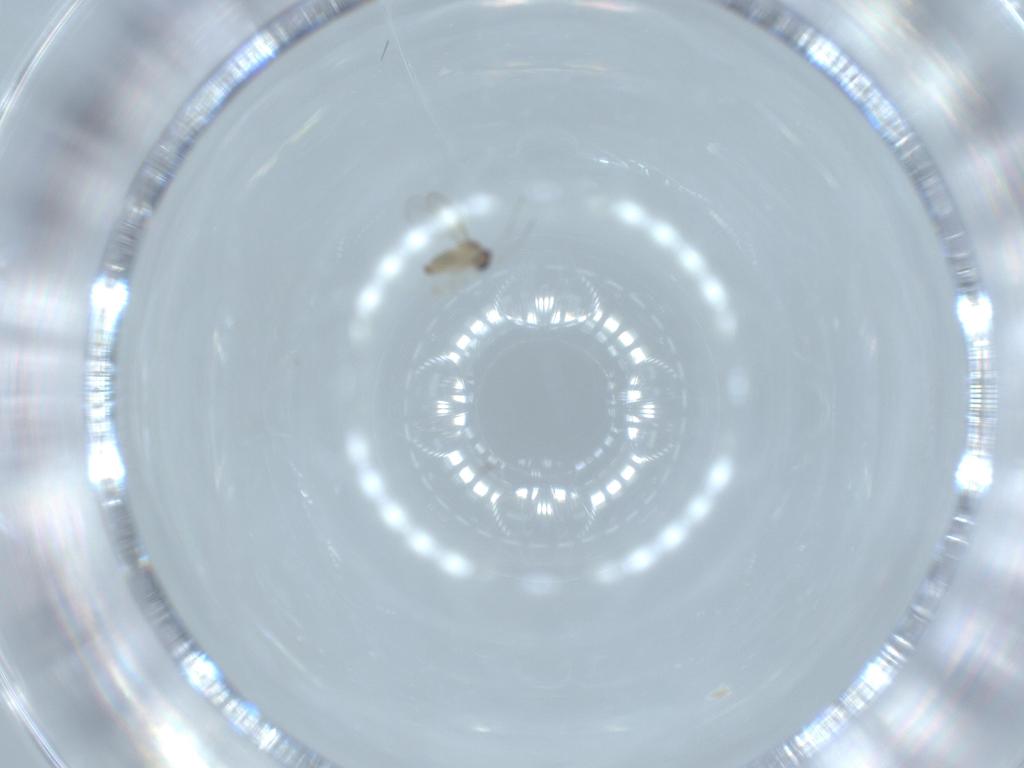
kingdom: Animalia
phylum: Arthropoda
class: Insecta
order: Diptera
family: Cecidomyiidae
